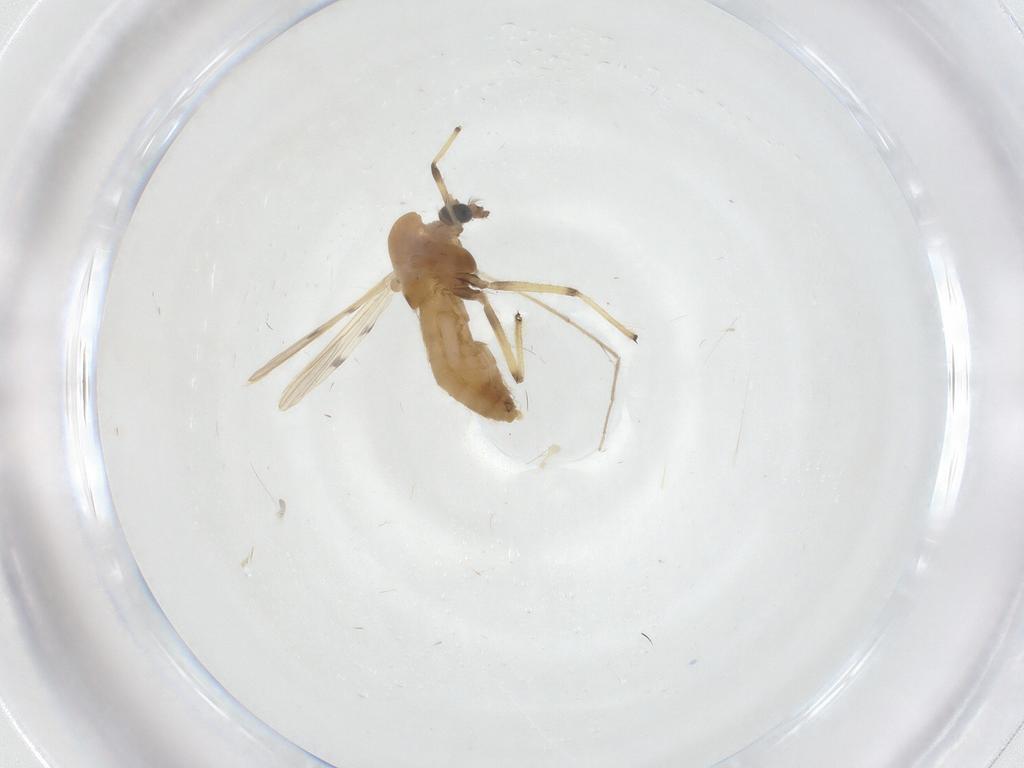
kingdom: Animalia
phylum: Arthropoda
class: Insecta
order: Diptera
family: Chironomidae
